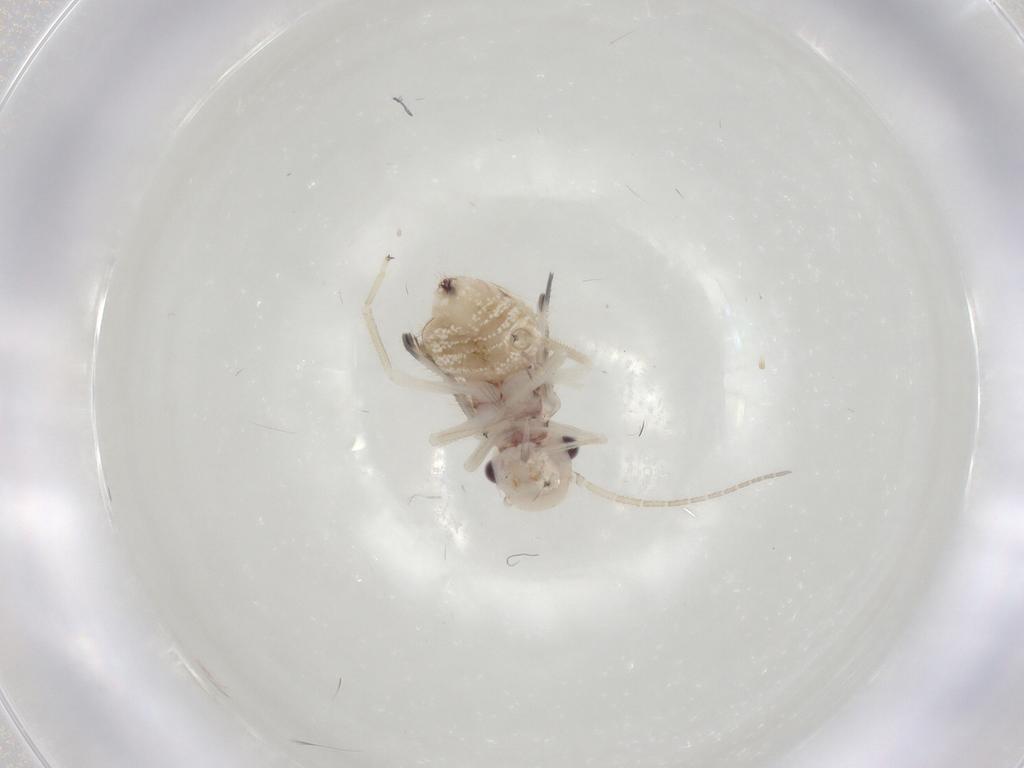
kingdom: Animalia
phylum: Arthropoda
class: Insecta
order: Psocodea
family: Amphipsocidae
